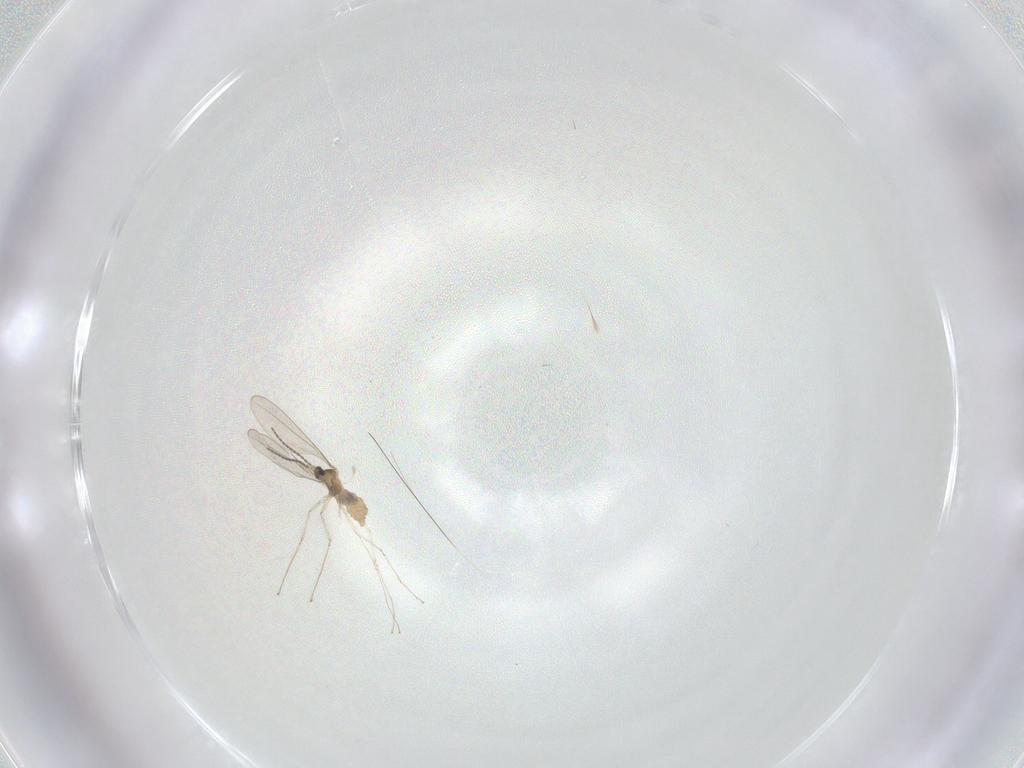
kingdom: Animalia
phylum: Arthropoda
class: Insecta
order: Diptera
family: Cecidomyiidae
